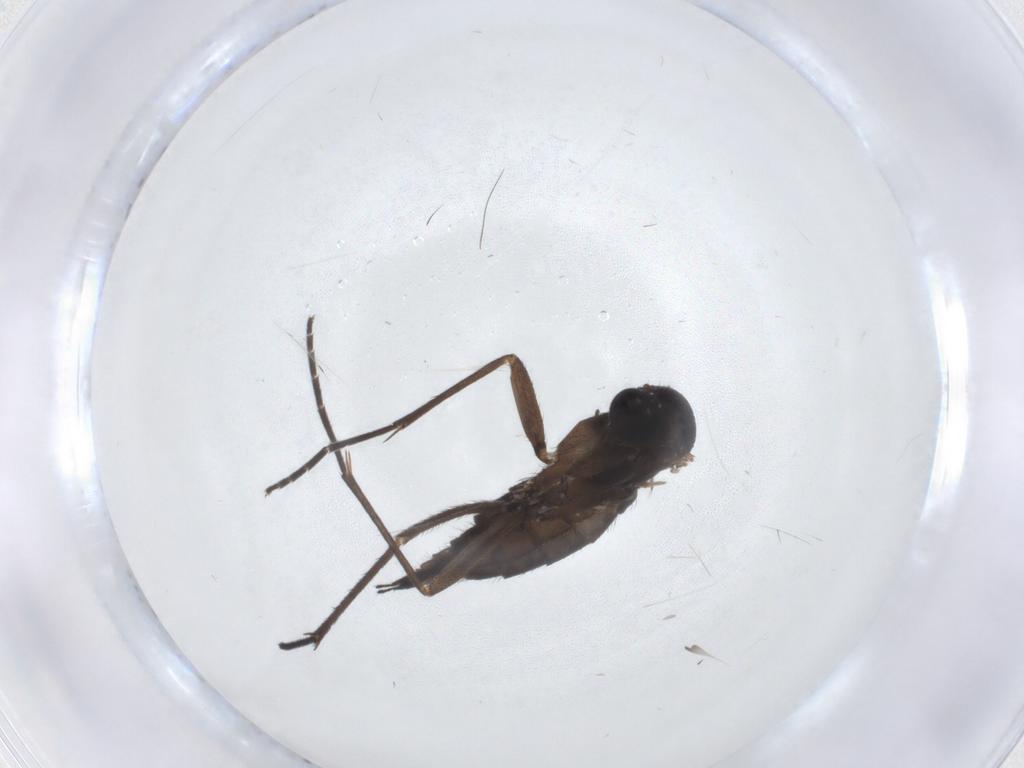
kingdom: Animalia
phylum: Arthropoda
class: Insecta
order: Diptera
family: Sciaridae
